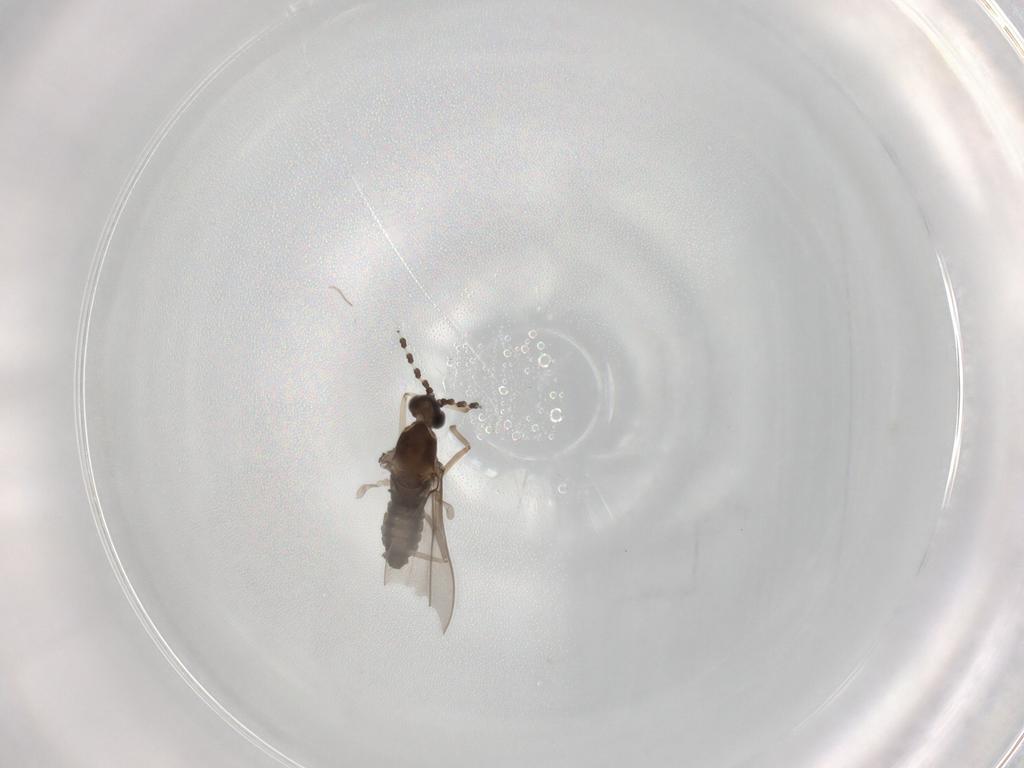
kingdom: Animalia
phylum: Arthropoda
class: Insecta
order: Diptera
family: Cecidomyiidae
